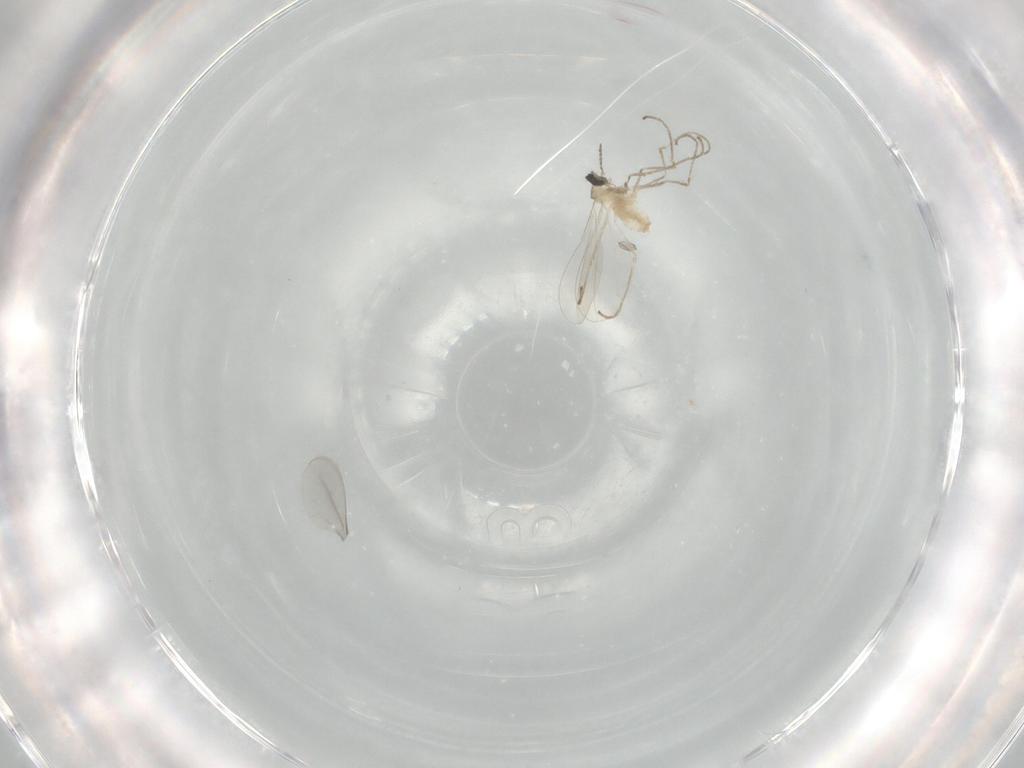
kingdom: Animalia
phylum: Arthropoda
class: Insecta
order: Diptera
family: Cecidomyiidae
